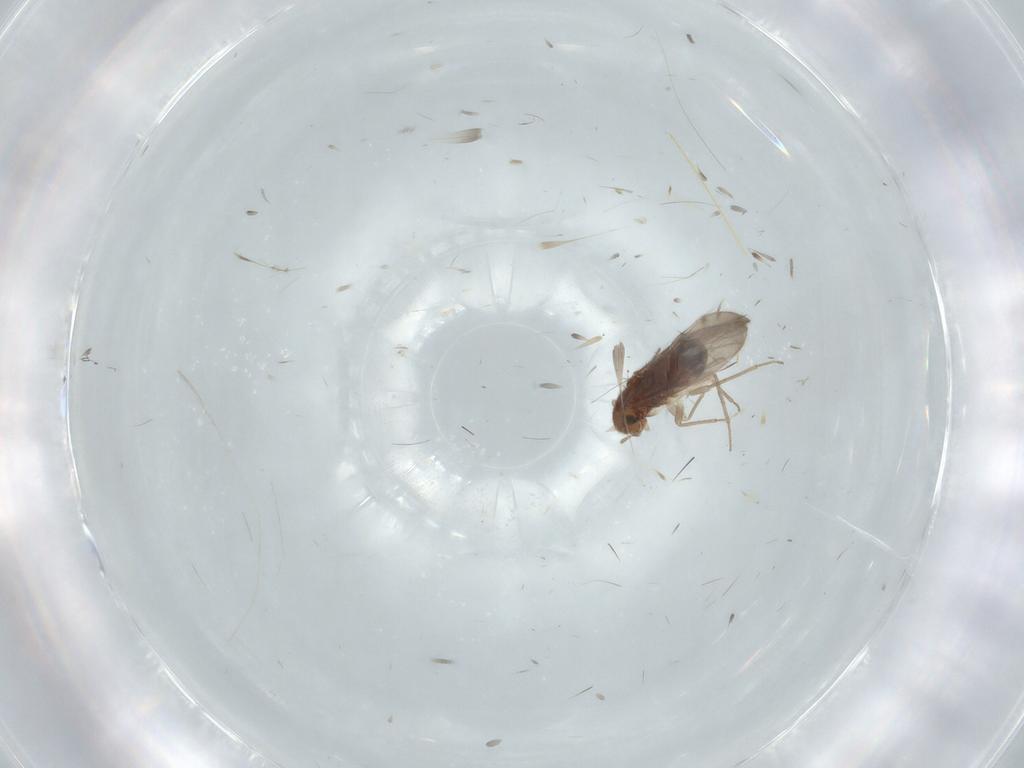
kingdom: Animalia
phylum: Arthropoda
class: Insecta
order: Psocodea
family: Ectopsocidae
